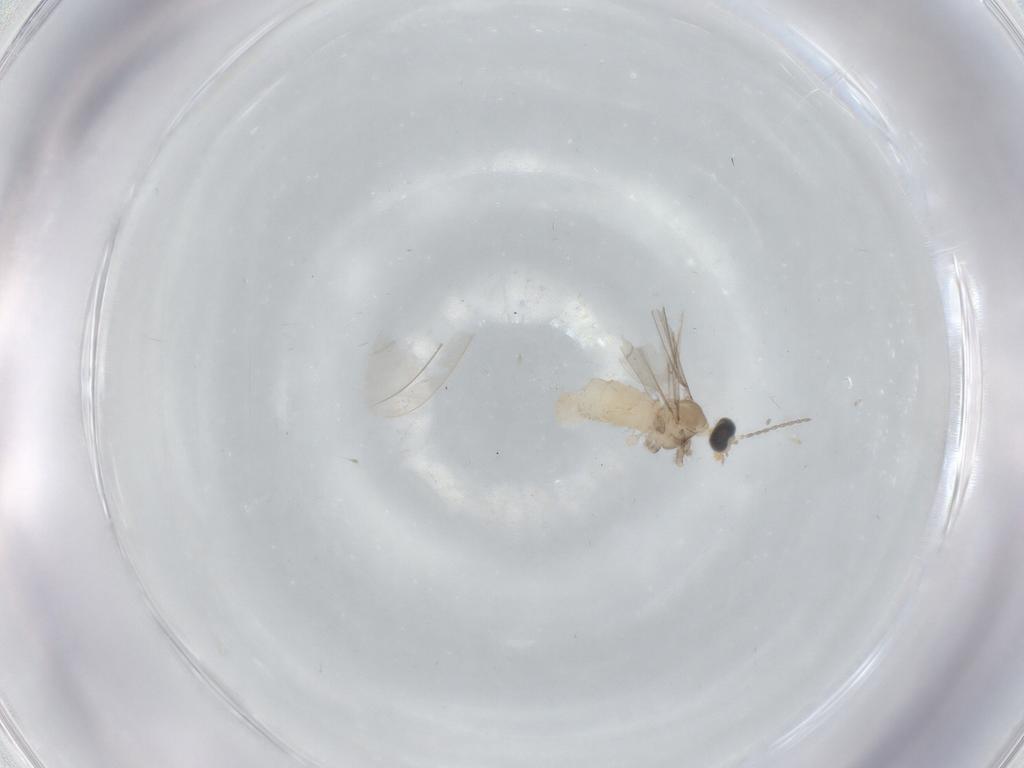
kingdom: Animalia
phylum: Arthropoda
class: Insecta
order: Diptera
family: Cecidomyiidae
